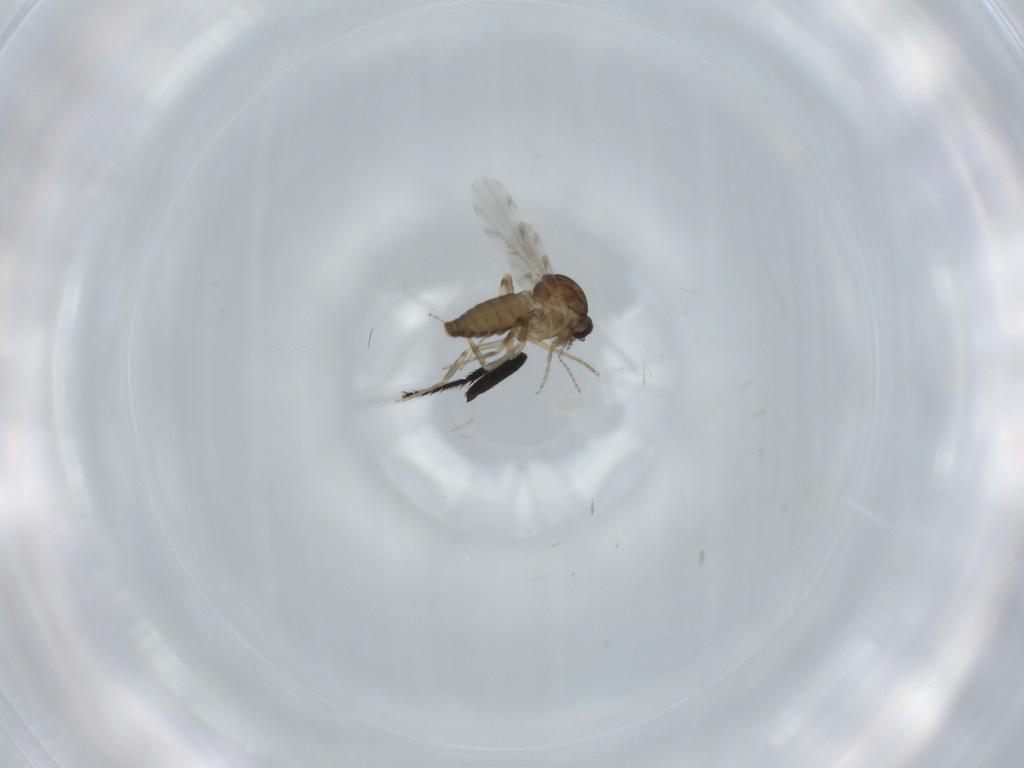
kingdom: Animalia
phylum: Arthropoda
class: Insecta
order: Diptera
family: Ceratopogonidae
